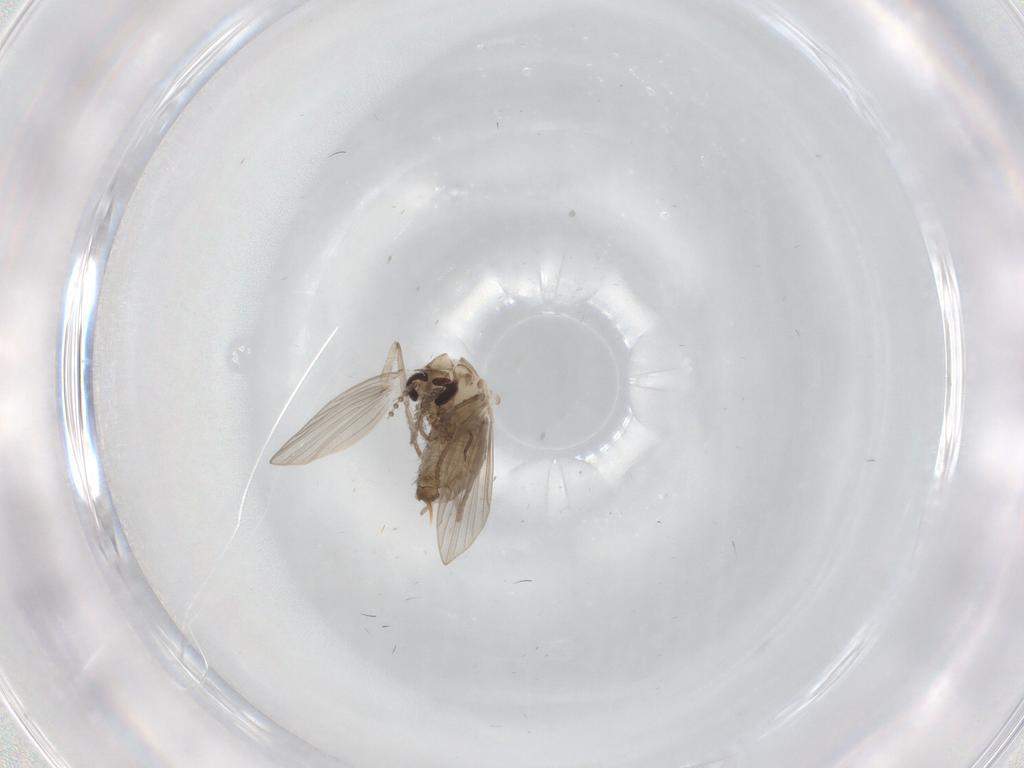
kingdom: Animalia
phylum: Arthropoda
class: Insecta
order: Diptera
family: Psychodidae
